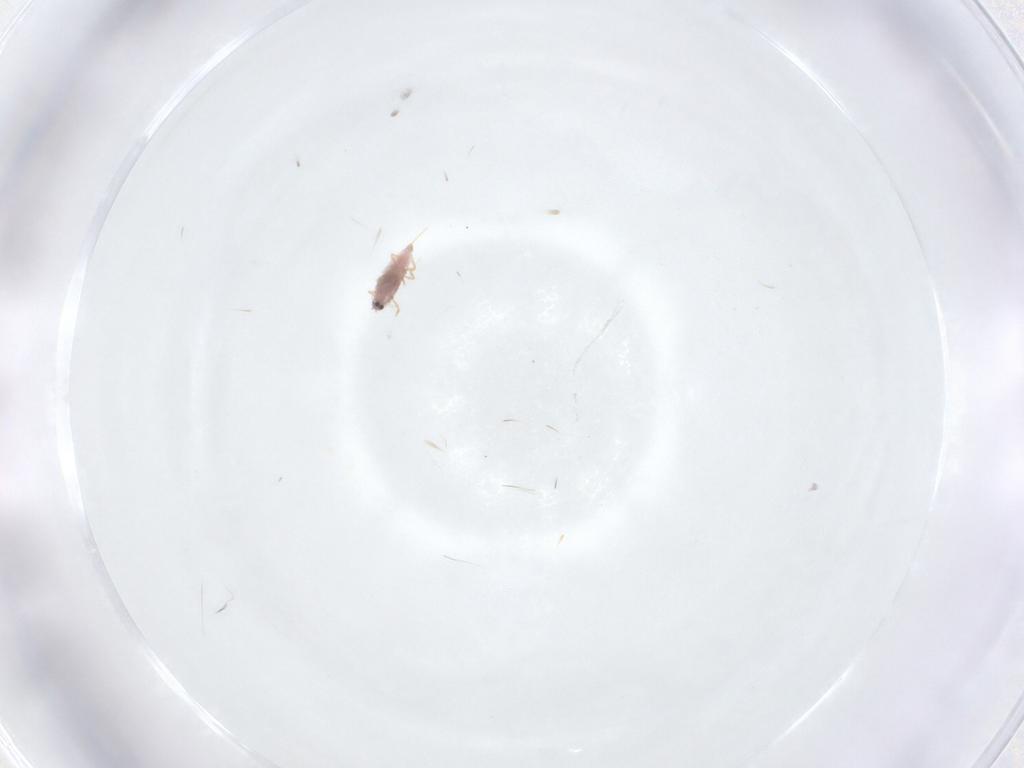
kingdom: Animalia
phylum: Arthropoda
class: Insecta
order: Hemiptera
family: Diaspididae
